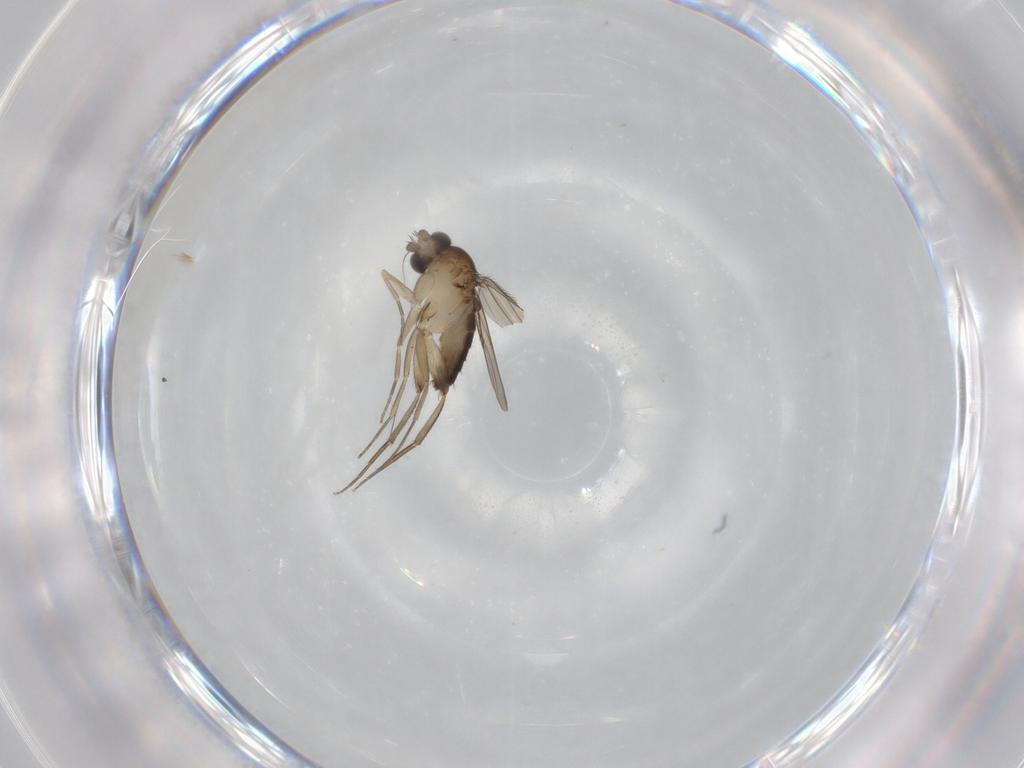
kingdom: Animalia
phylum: Arthropoda
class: Insecta
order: Diptera
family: Phoridae
